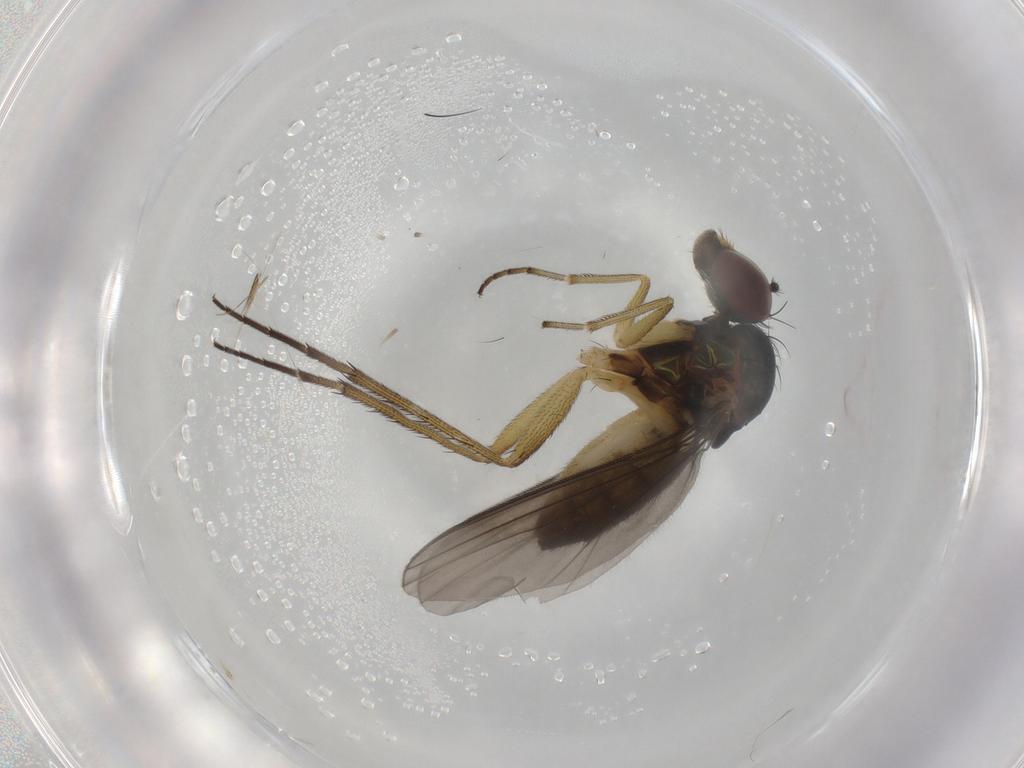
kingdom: Animalia
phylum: Arthropoda
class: Insecta
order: Diptera
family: Dolichopodidae
